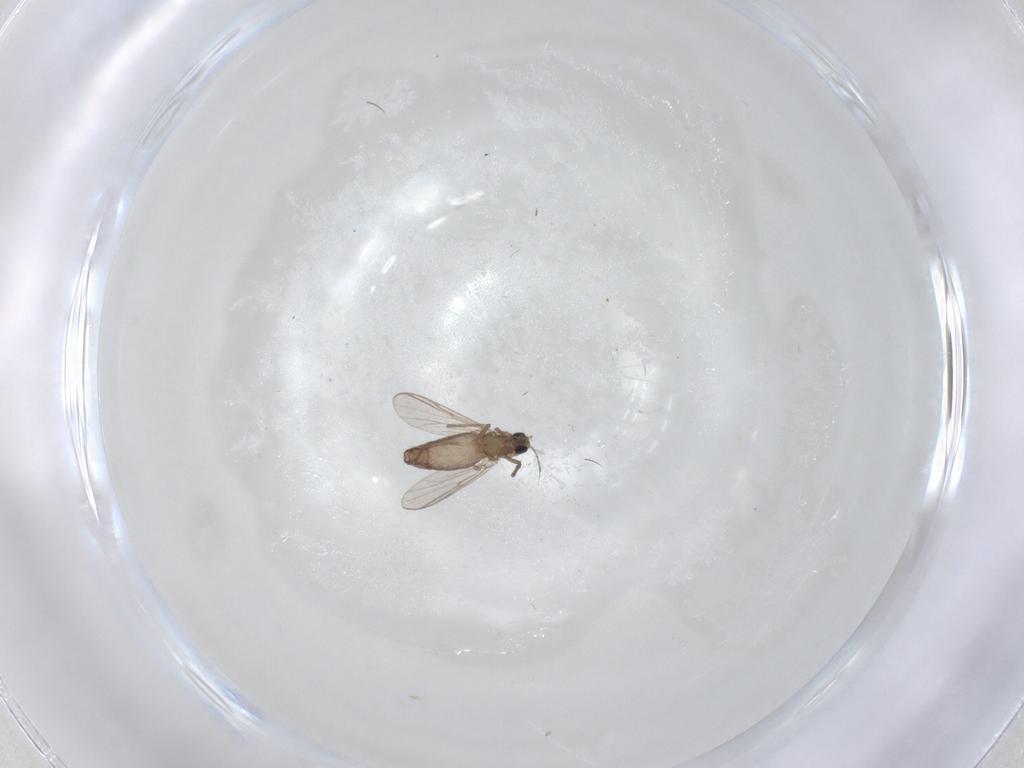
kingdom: Animalia
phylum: Arthropoda
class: Insecta
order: Diptera
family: Chironomidae
